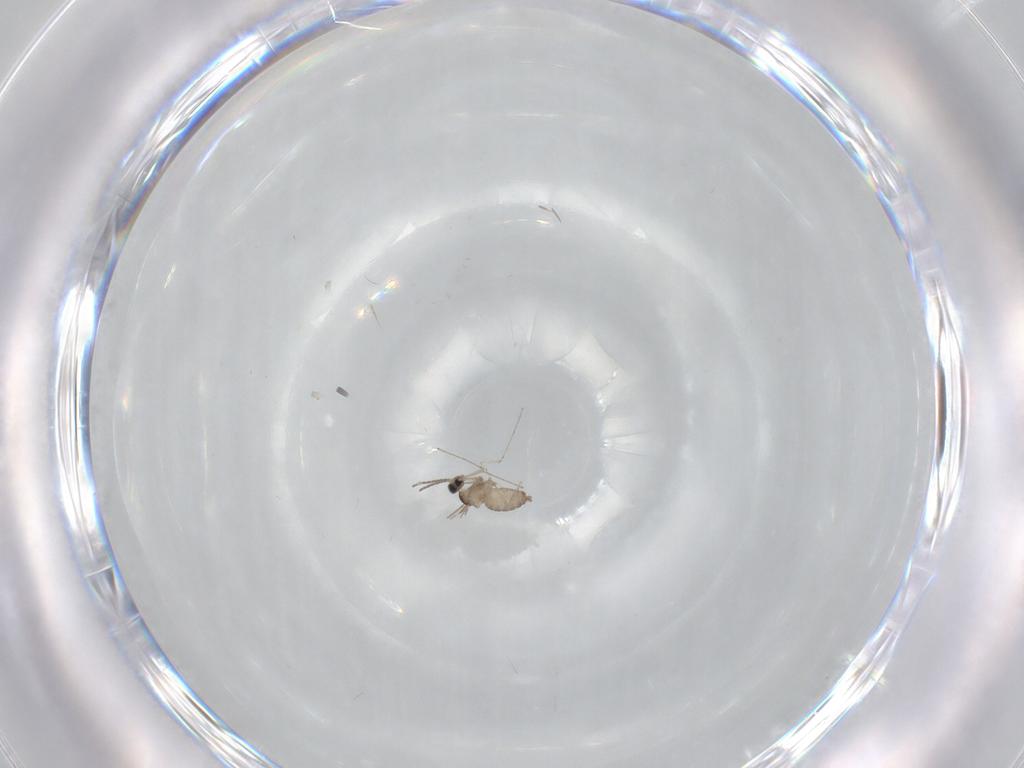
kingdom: Animalia
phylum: Arthropoda
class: Insecta
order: Diptera
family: Cecidomyiidae
